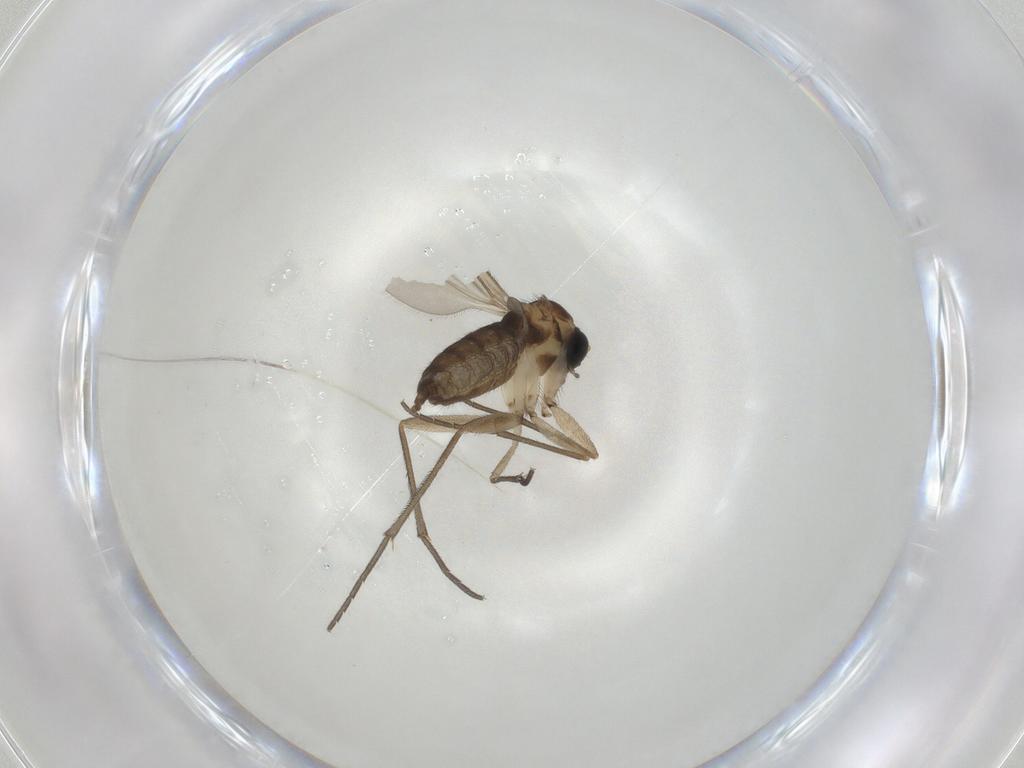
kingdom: Animalia
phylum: Arthropoda
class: Insecta
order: Diptera
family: Sciaridae
